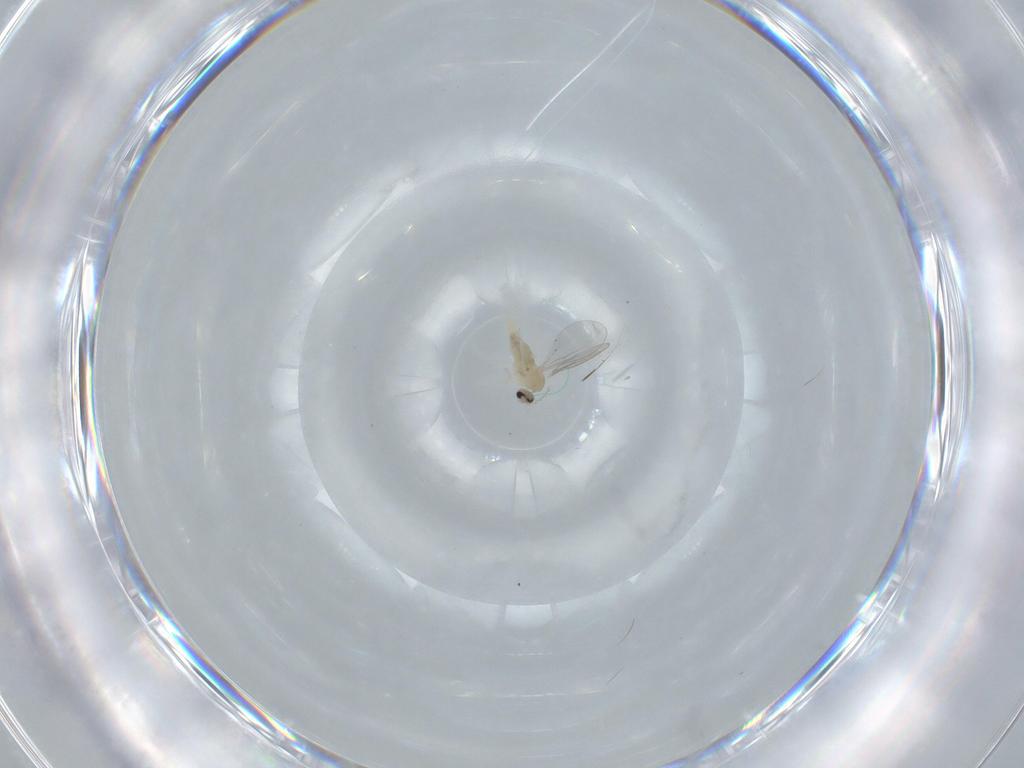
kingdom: Animalia
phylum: Arthropoda
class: Insecta
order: Diptera
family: Cecidomyiidae
